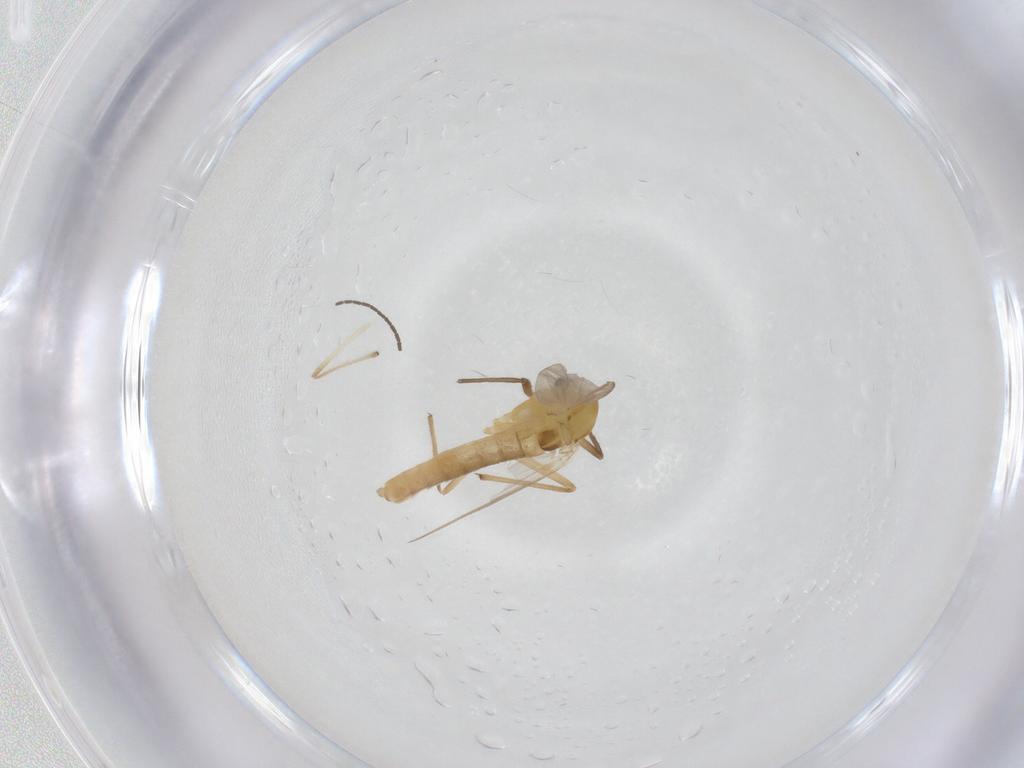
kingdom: Animalia
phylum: Arthropoda
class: Insecta
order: Diptera
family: Chironomidae
